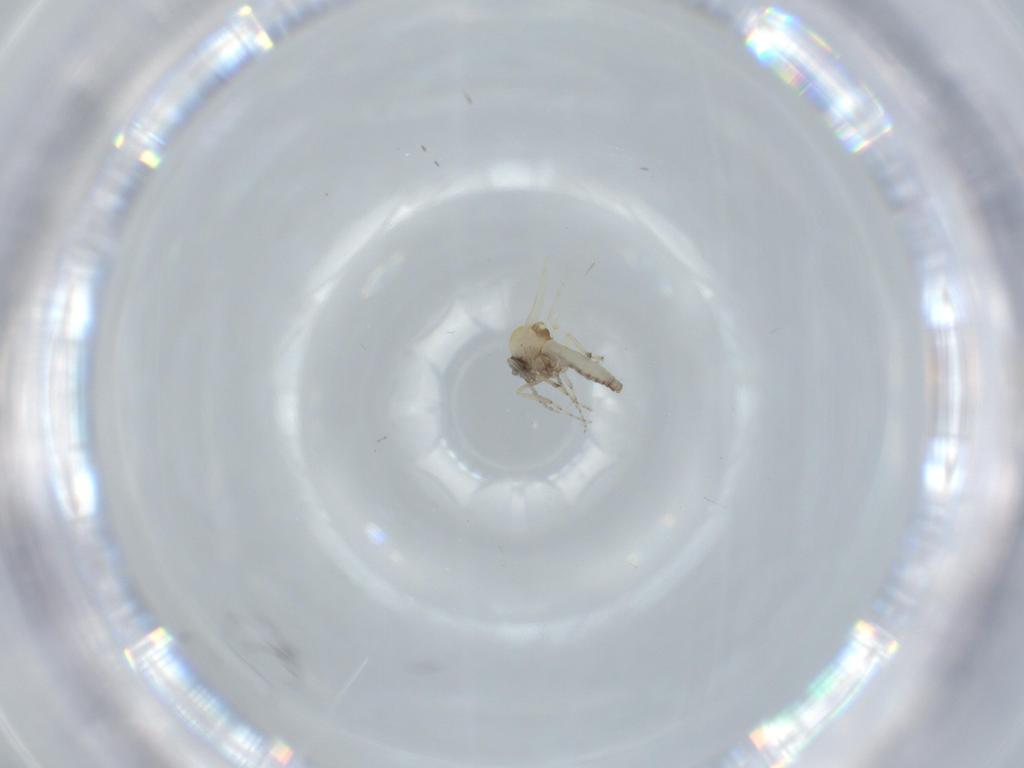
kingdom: Animalia
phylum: Arthropoda
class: Insecta
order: Diptera
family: Ceratopogonidae
